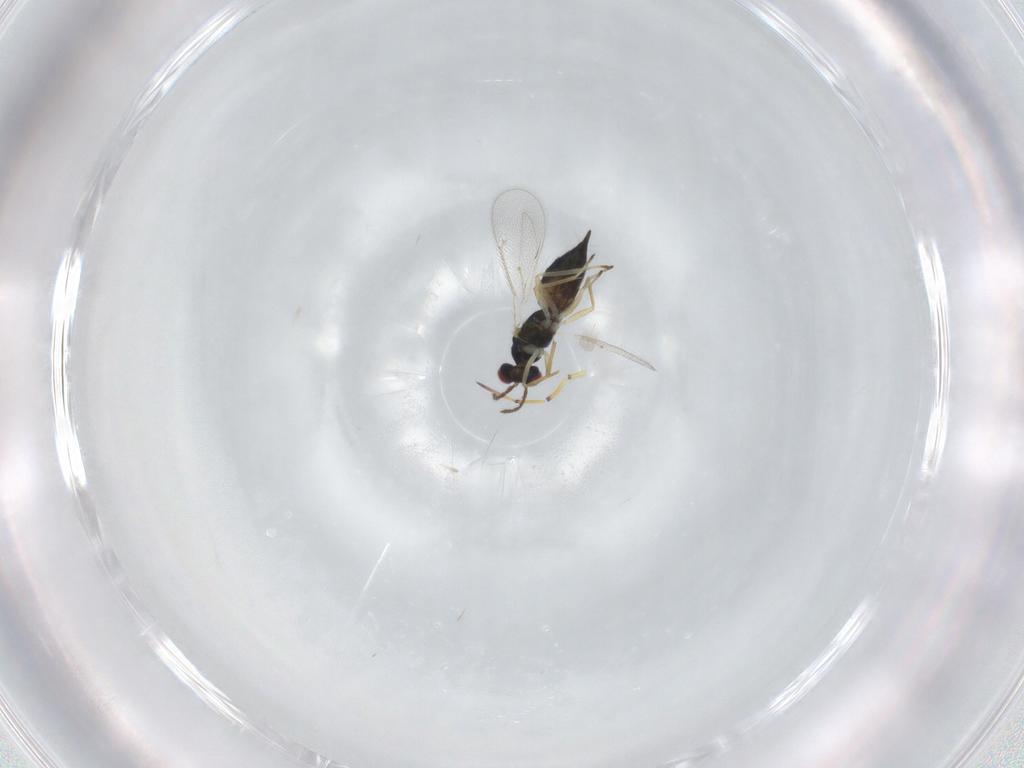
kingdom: Animalia
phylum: Arthropoda
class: Insecta
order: Hymenoptera
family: Eulophidae
